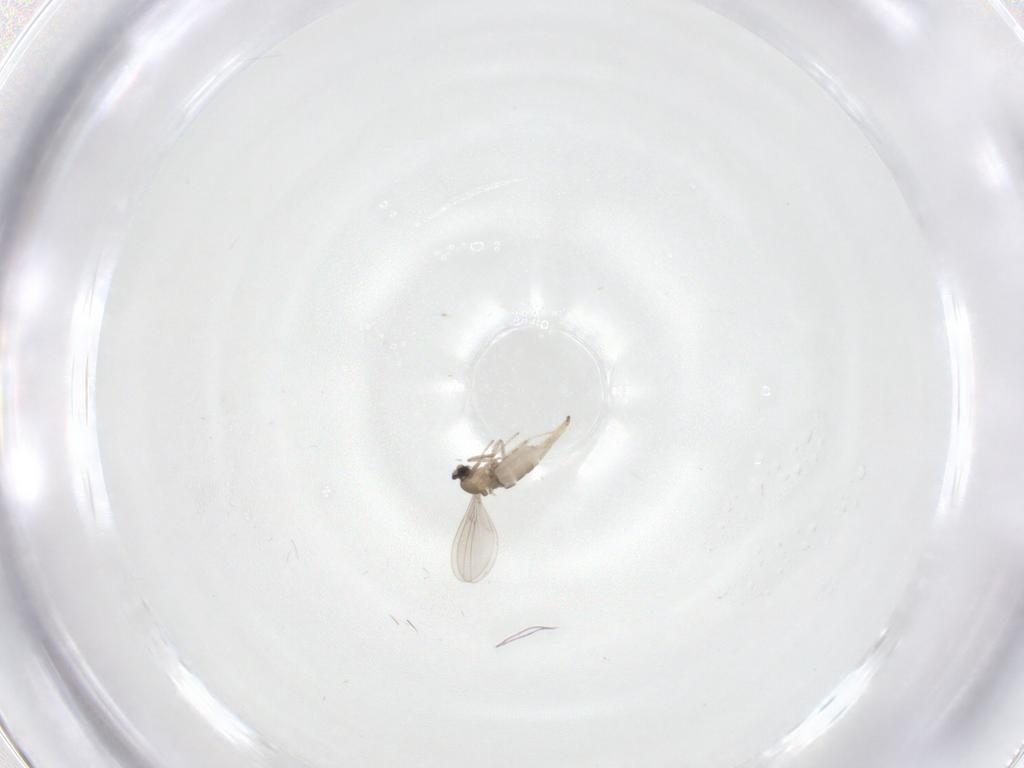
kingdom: Animalia
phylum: Arthropoda
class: Insecta
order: Diptera
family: Cecidomyiidae
